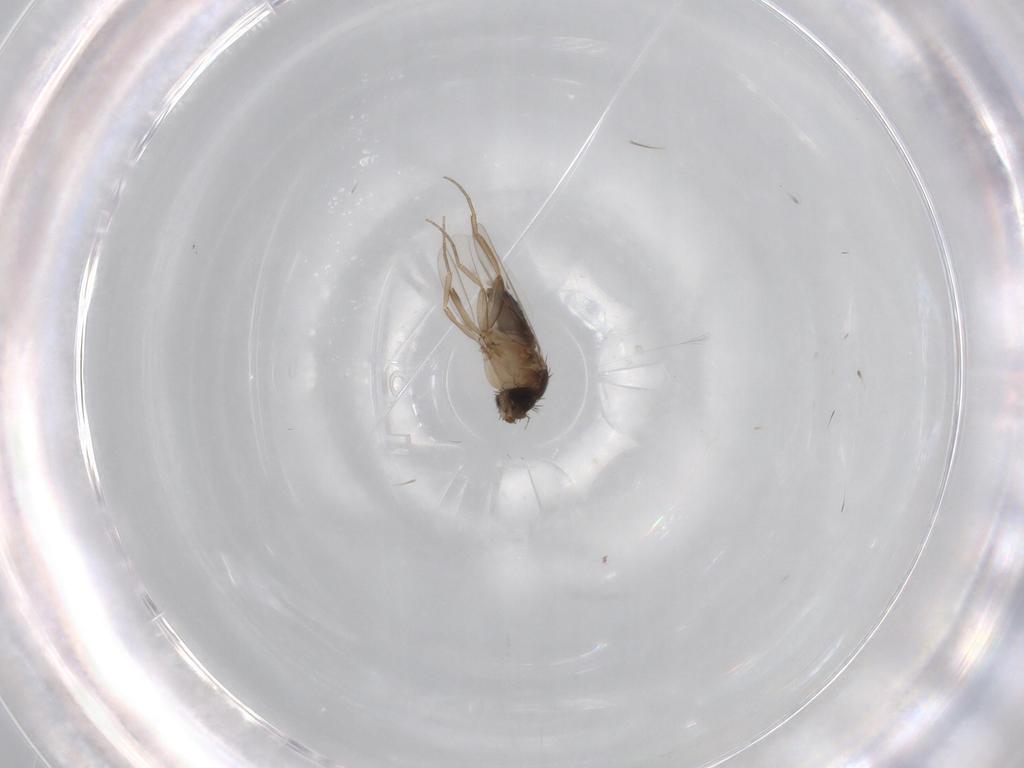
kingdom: Animalia
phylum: Arthropoda
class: Insecta
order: Diptera
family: Phoridae
